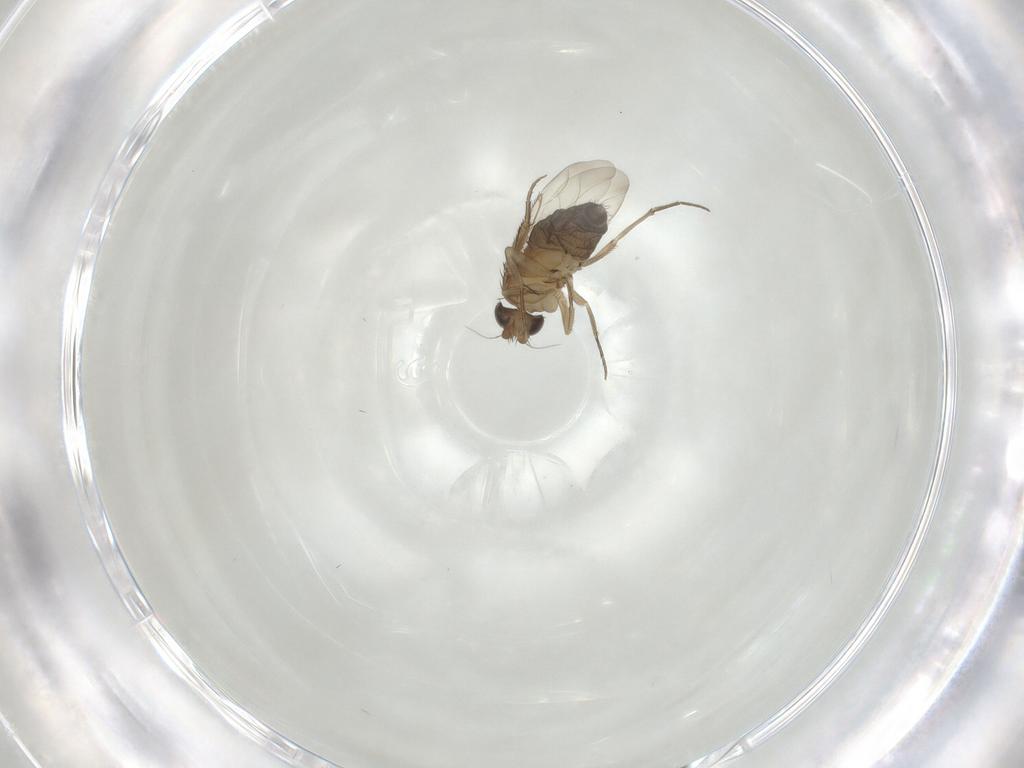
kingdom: Animalia
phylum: Arthropoda
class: Insecta
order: Diptera
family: Phoridae
